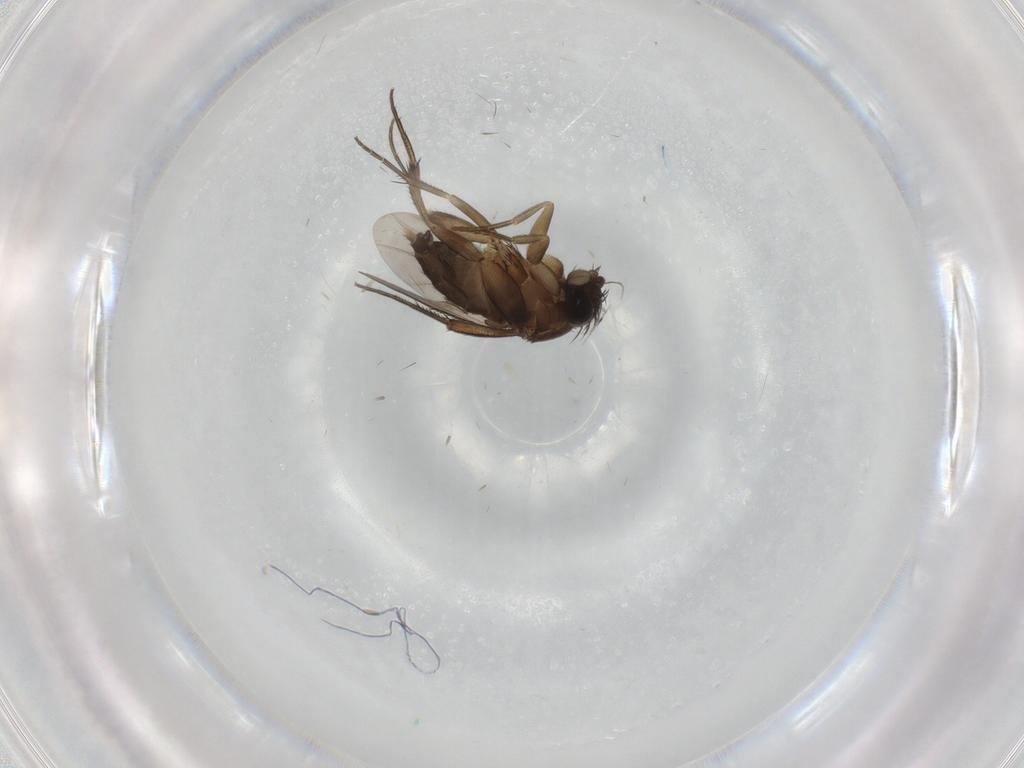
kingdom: Animalia
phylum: Arthropoda
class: Insecta
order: Diptera
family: Phoridae
